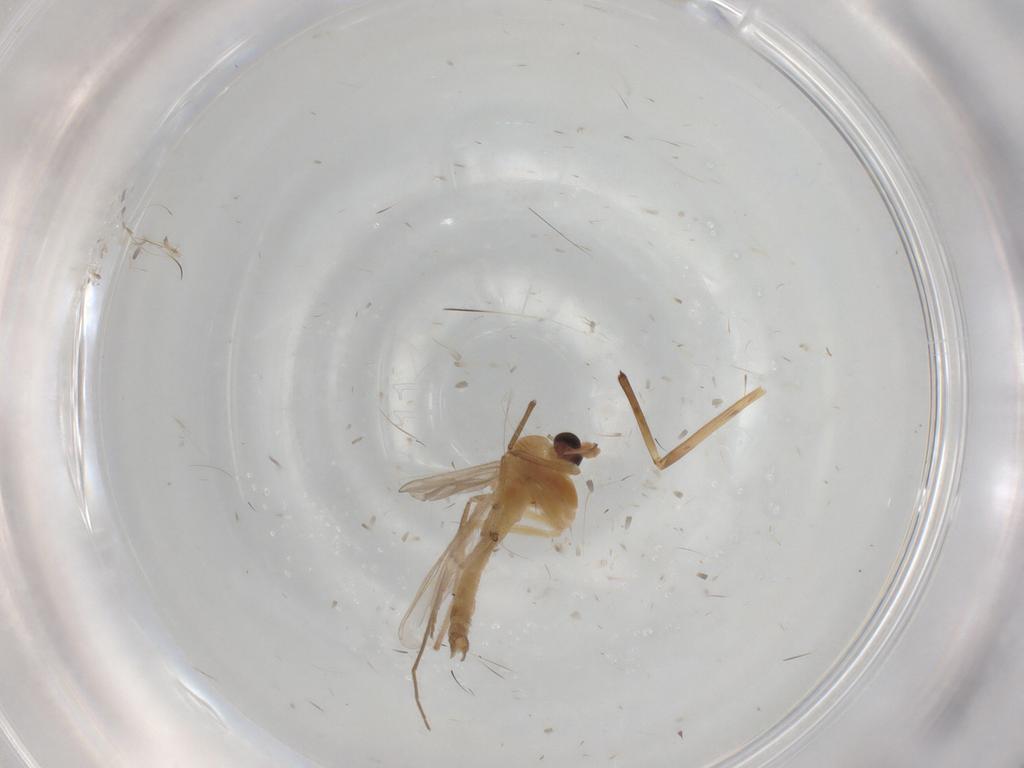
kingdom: Animalia
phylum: Arthropoda
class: Insecta
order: Diptera
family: Chironomidae
